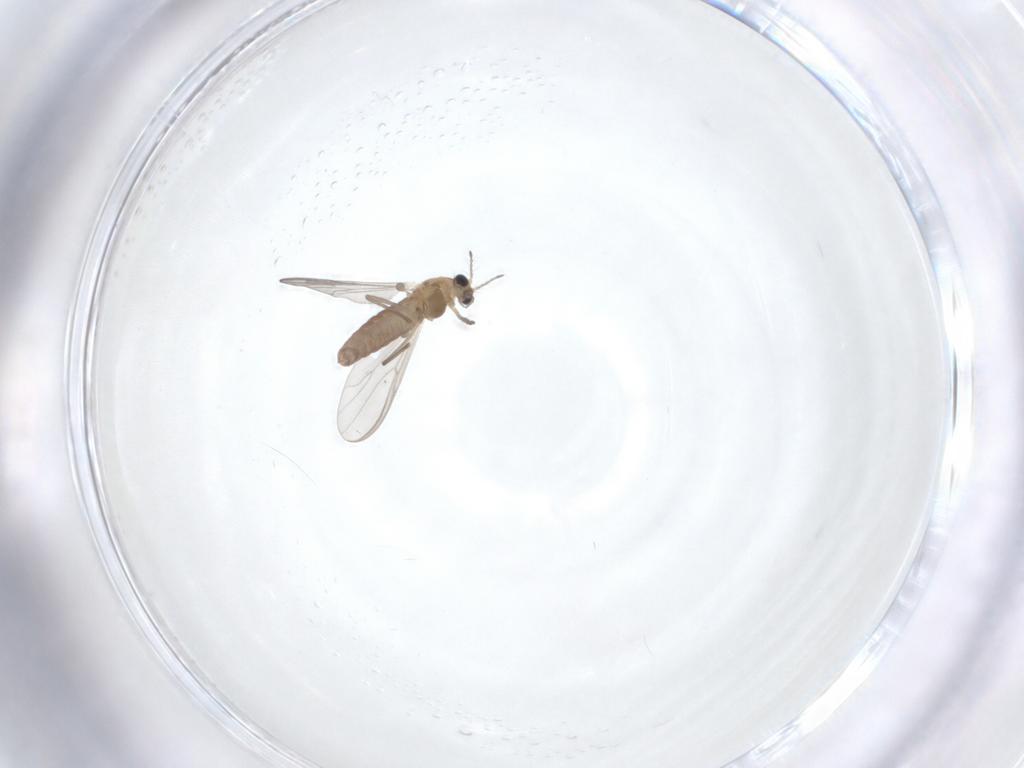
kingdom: Animalia
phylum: Arthropoda
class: Insecta
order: Diptera
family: Chironomidae
